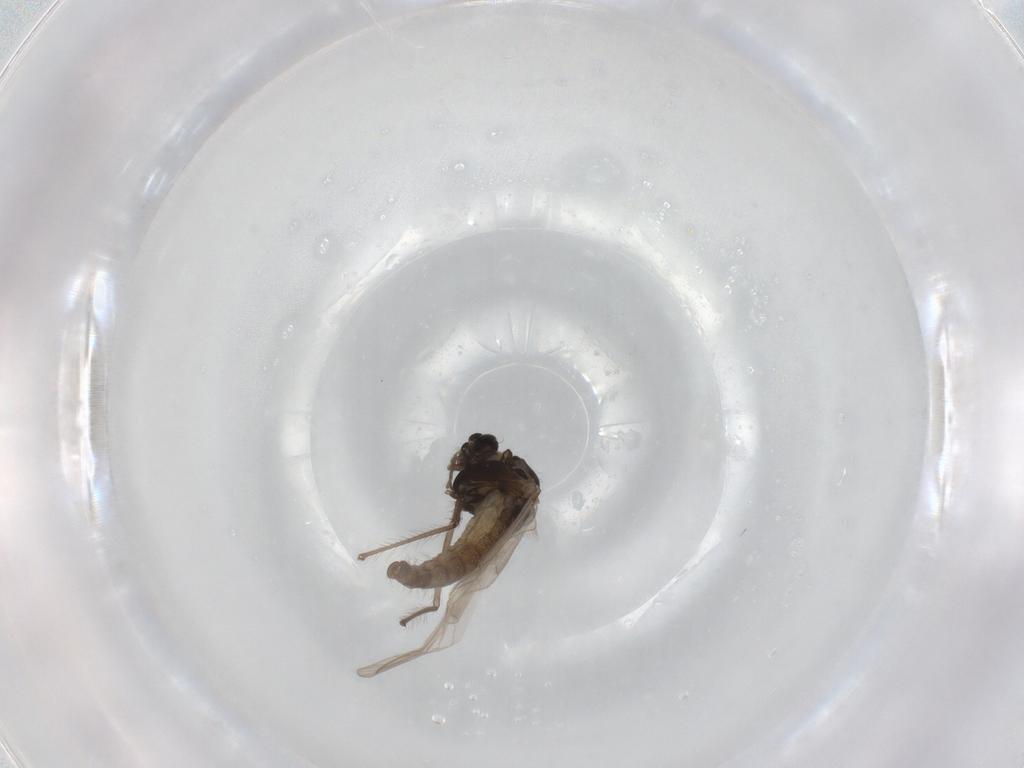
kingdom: Animalia
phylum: Arthropoda
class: Insecta
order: Diptera
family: Chironomidae
